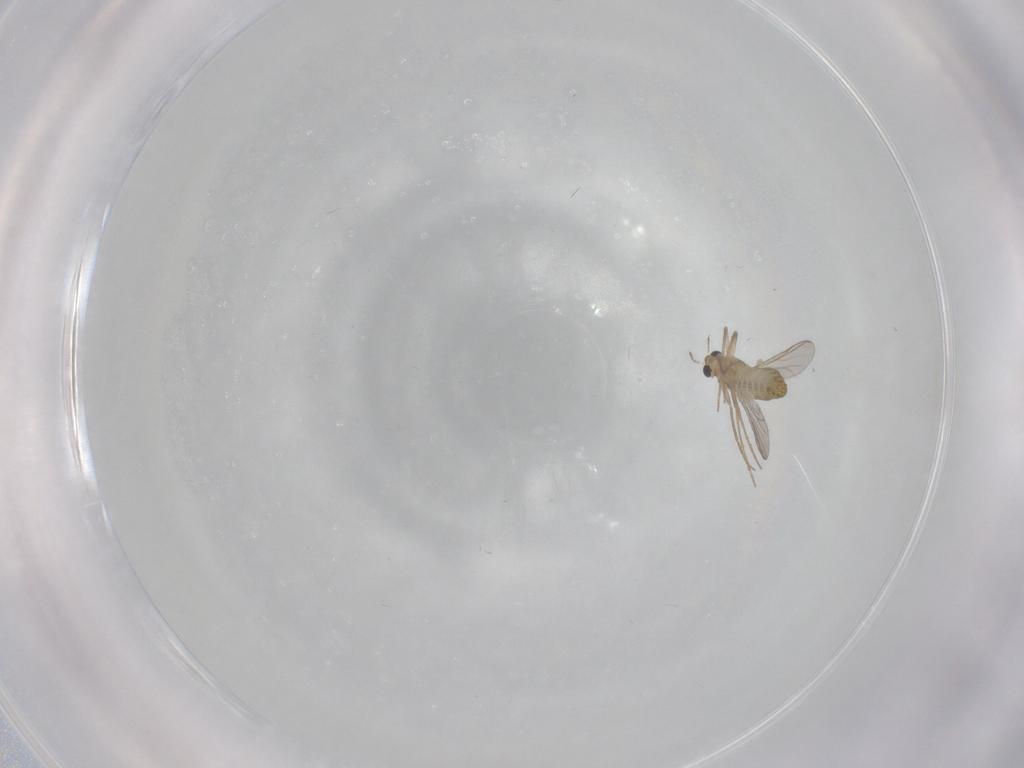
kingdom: Animalia
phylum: Arthropoda
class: Insecta
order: Diptera
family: Chironomidae
